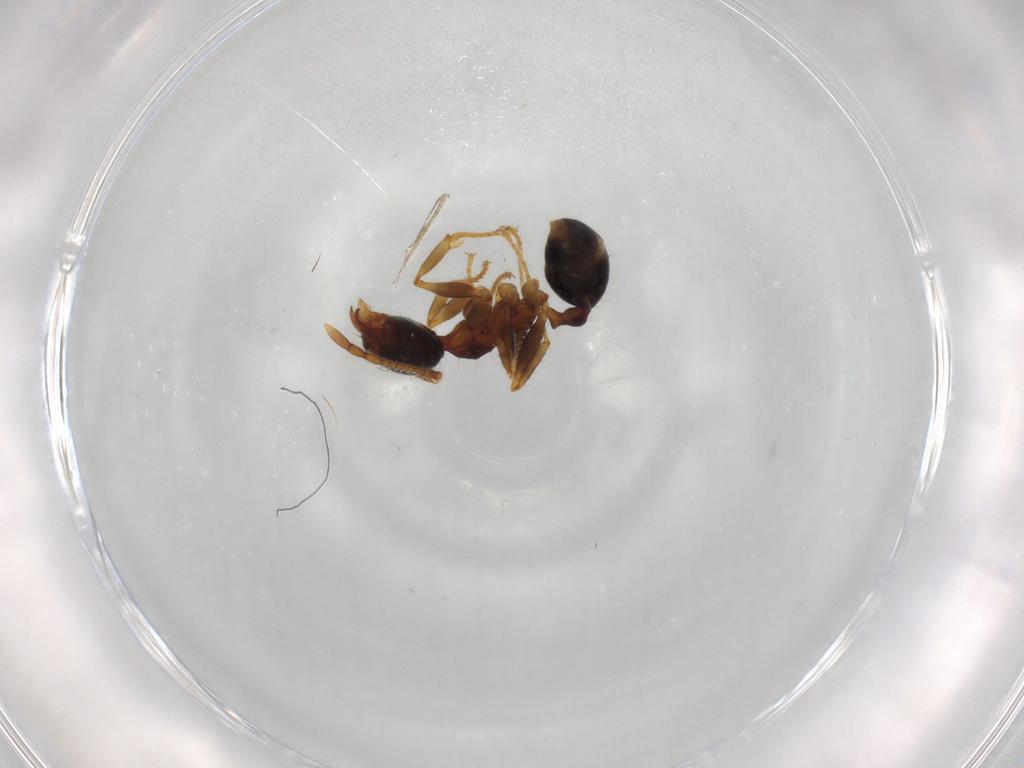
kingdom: Animalia
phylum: Arthropoda
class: Insecta
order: Hymenoptera
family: Formicidae
